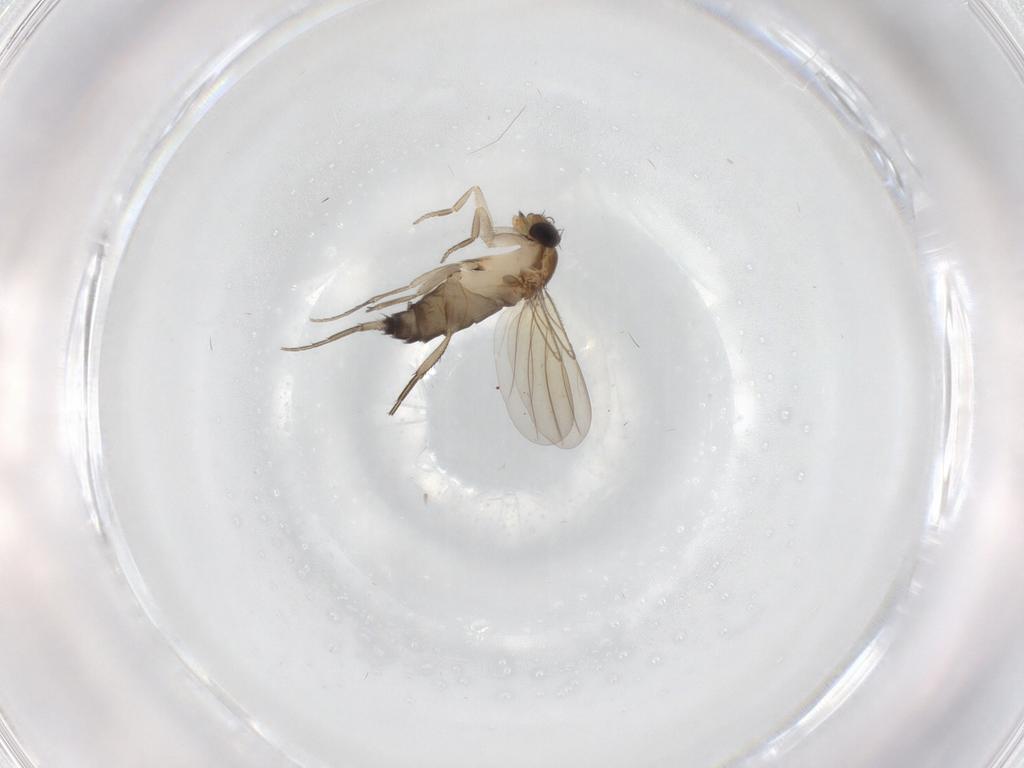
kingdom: Animalia
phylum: Arthropoda
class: Insecta
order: Diptera
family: Phoridae
